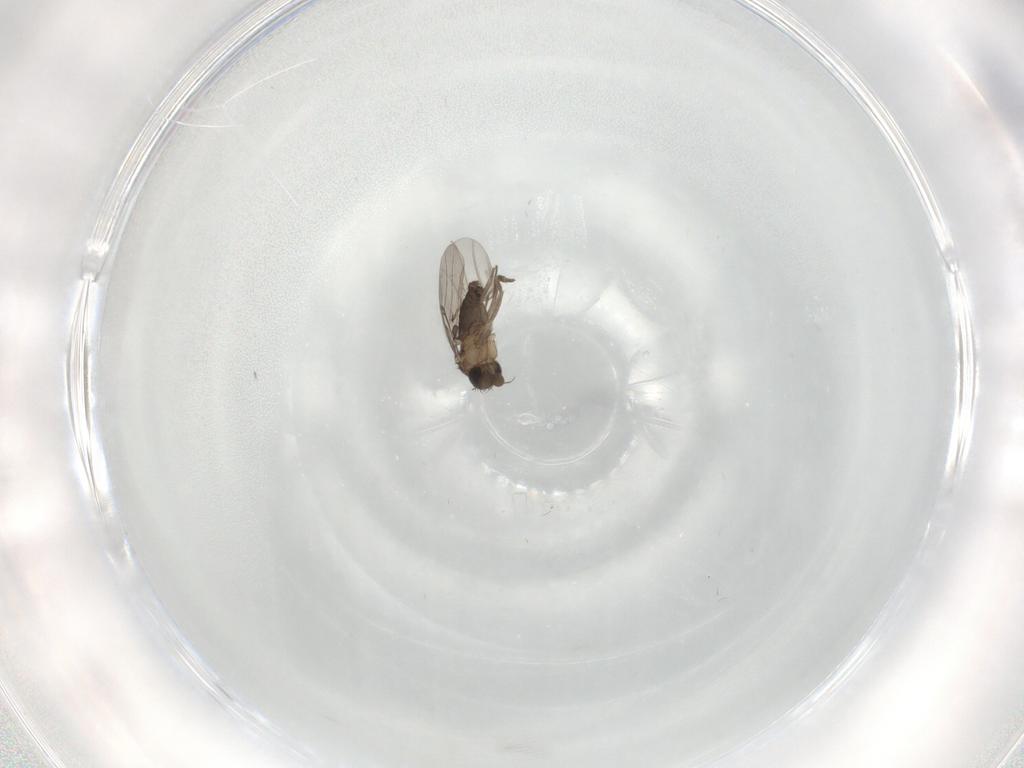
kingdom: Animalia
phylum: Arthropoda
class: Insecta
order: Diptera
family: Phoridae
